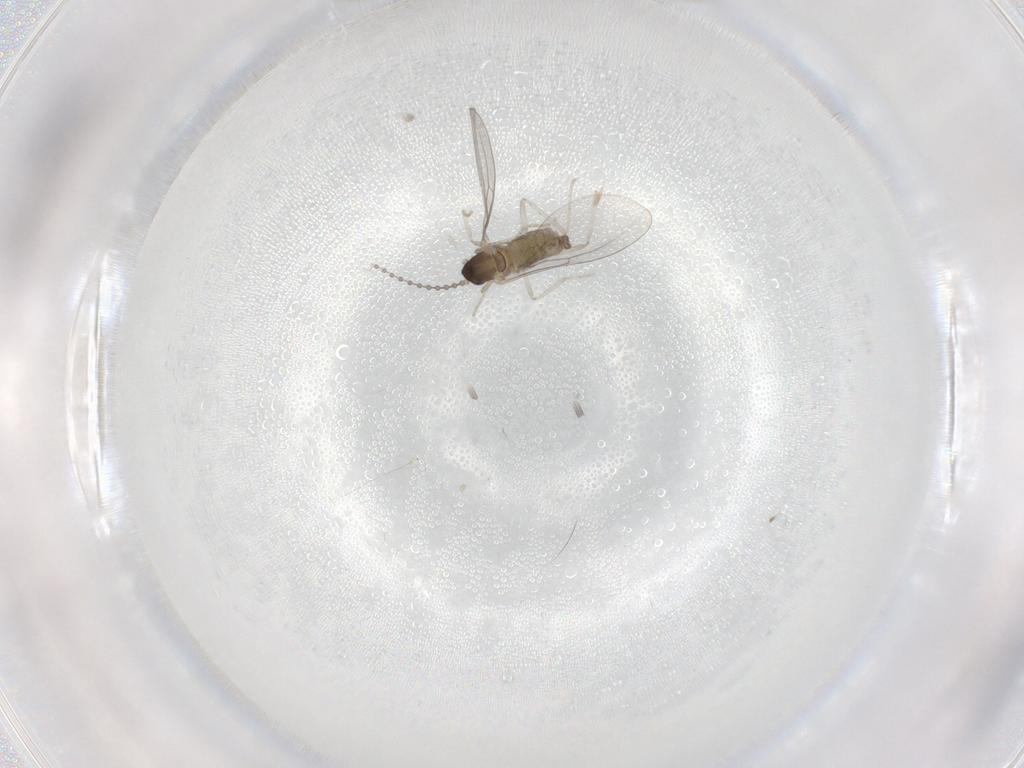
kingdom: Animalia
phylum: Arthropoda
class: Insecta
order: Diptera
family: Cecidomyiidae
